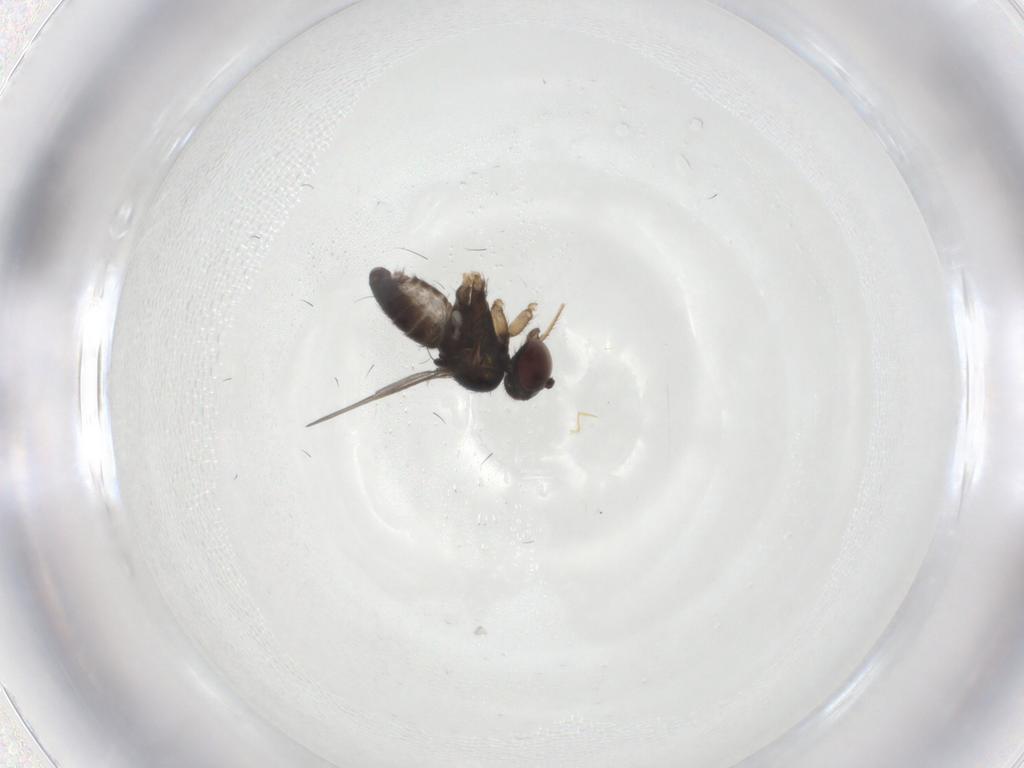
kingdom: Animalia
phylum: Arthropoda
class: Insecta
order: Diptera
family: Dolichopodidae
